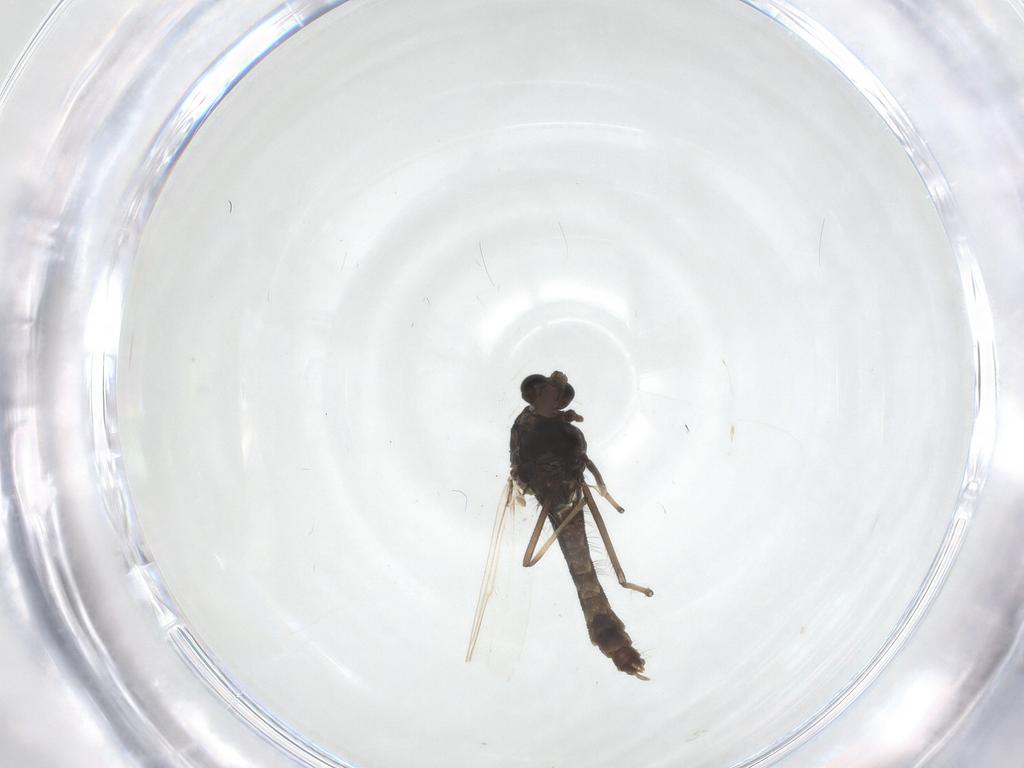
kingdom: Animalia
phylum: Arthropoda
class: Insecta
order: Diptera
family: Chironomidae
